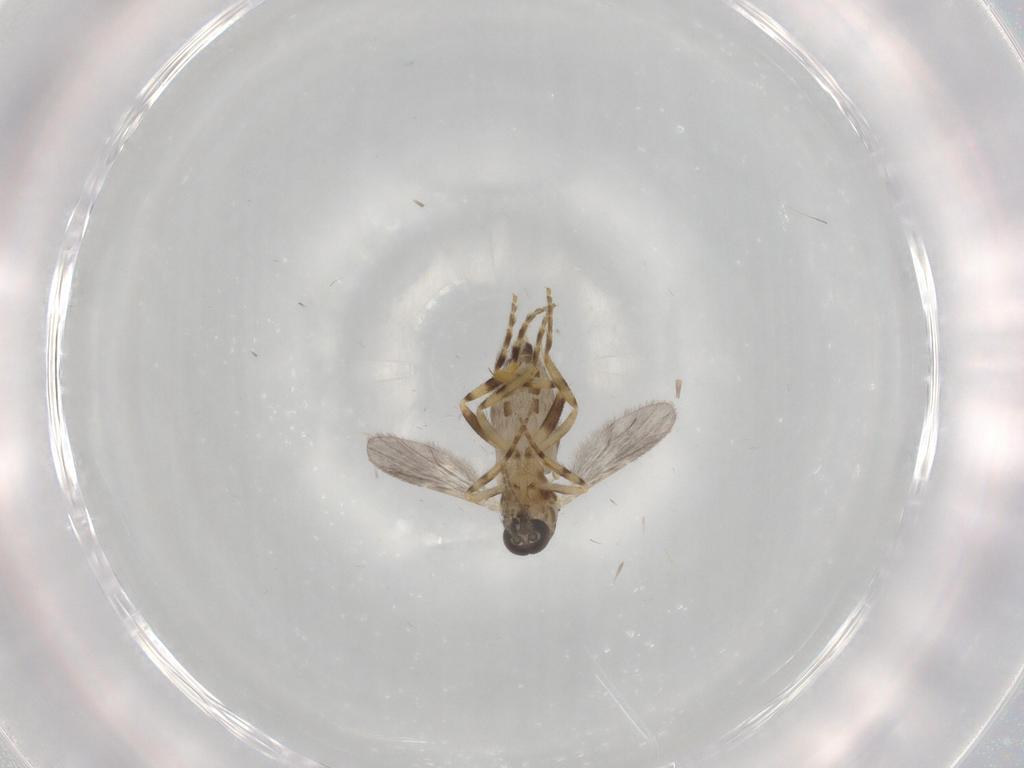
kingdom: Animalia
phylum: Arthropoda
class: Insecta
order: Diptera
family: Ceratopogonidae
